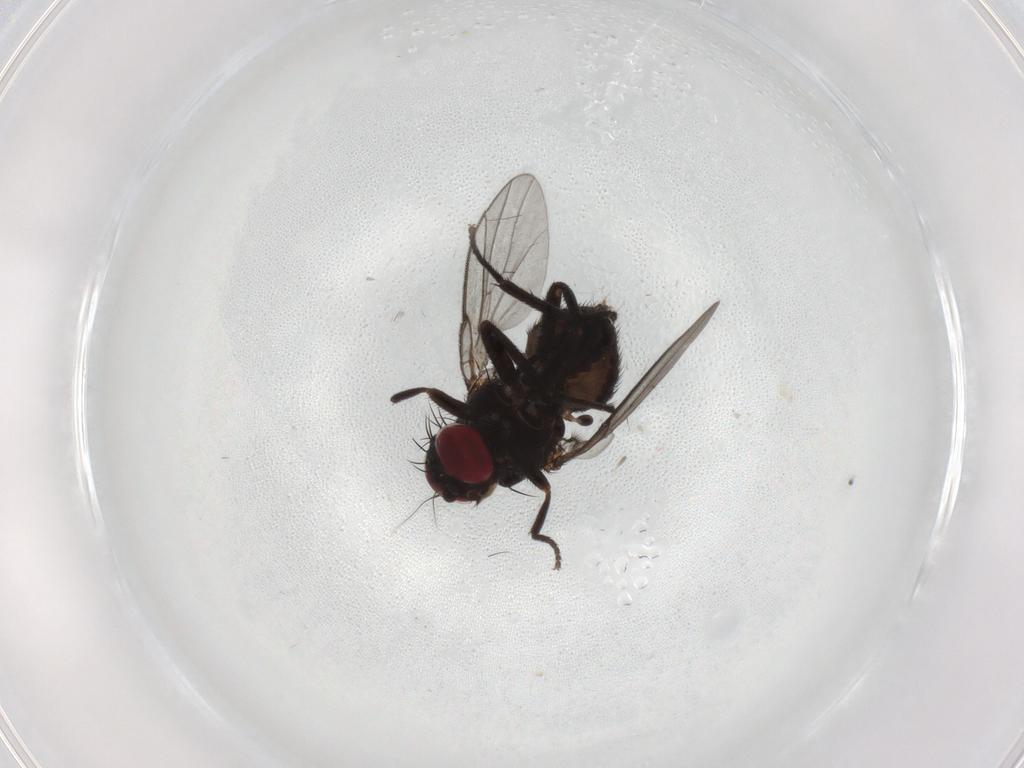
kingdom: Animalia
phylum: Arthropoda
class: Insecta
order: Diptera
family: Agromyzidae
